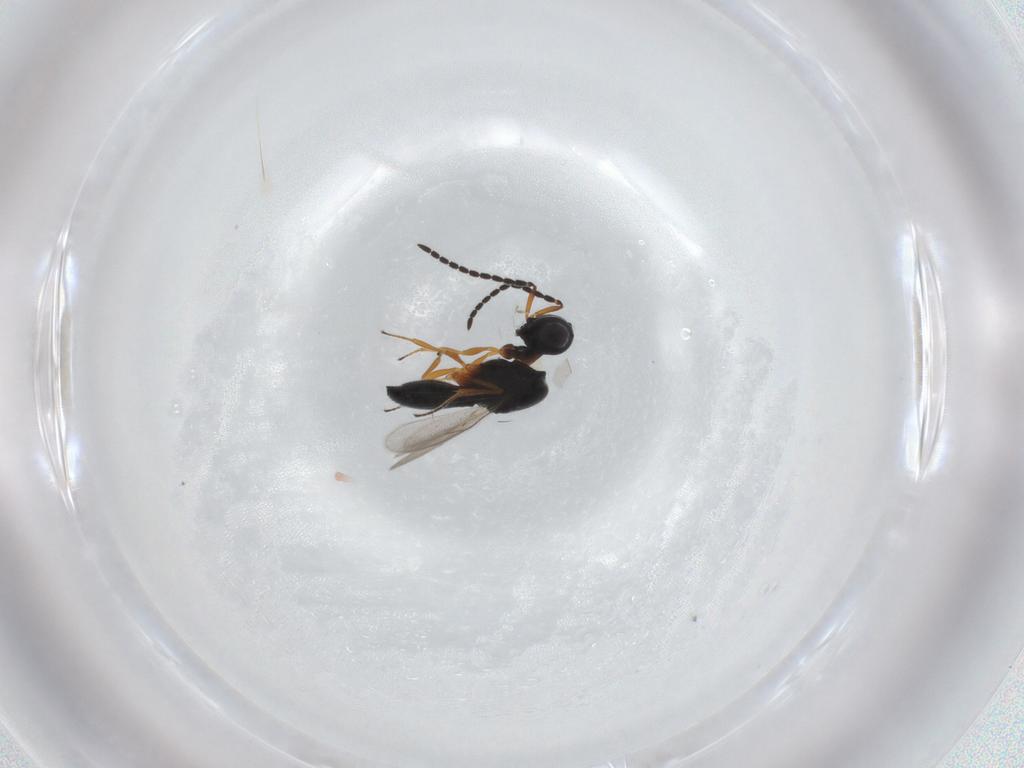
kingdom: Animalia
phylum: Arthropoda
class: Insecta
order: Hymenoptera
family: Scelionidae
